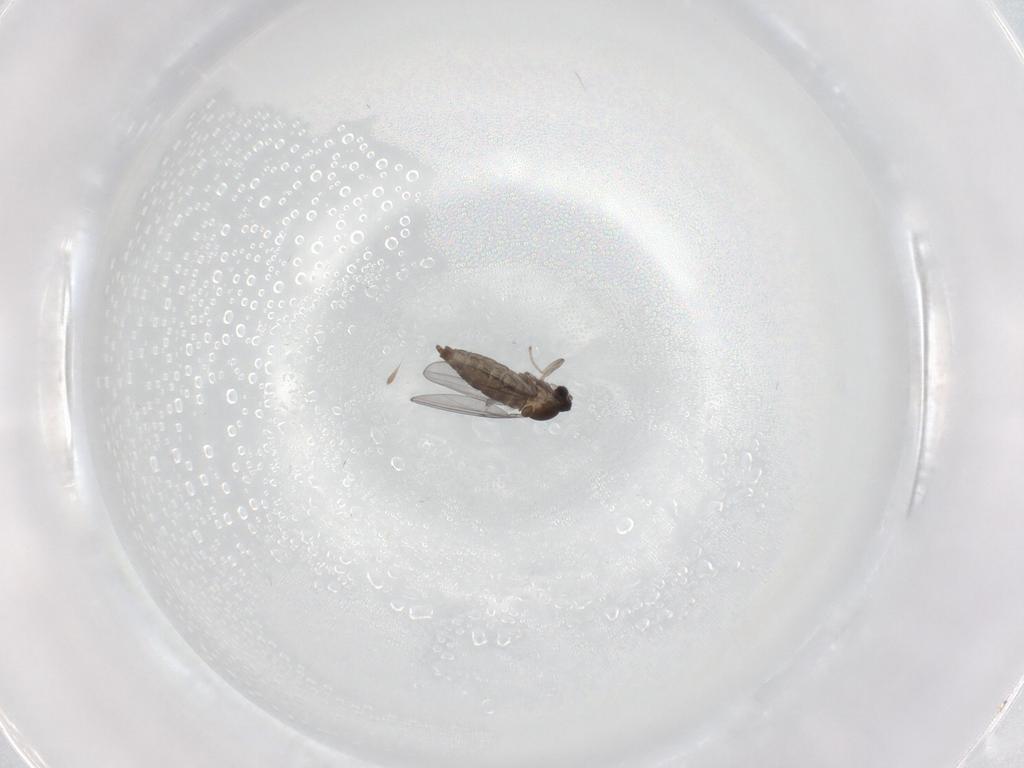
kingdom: Animalia
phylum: Arthropoda
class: Insecta
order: Diptera
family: Cecidomyiidae
